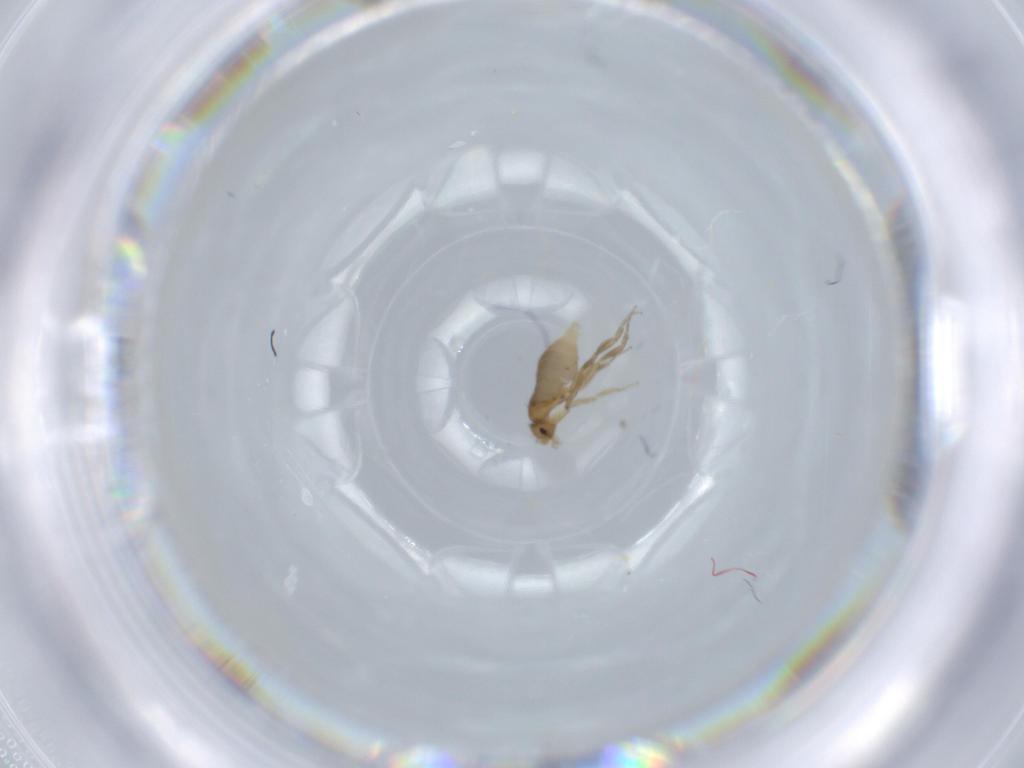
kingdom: Animalia
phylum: Arthropoda
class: Insecta
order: Diptera
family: Phoridae
